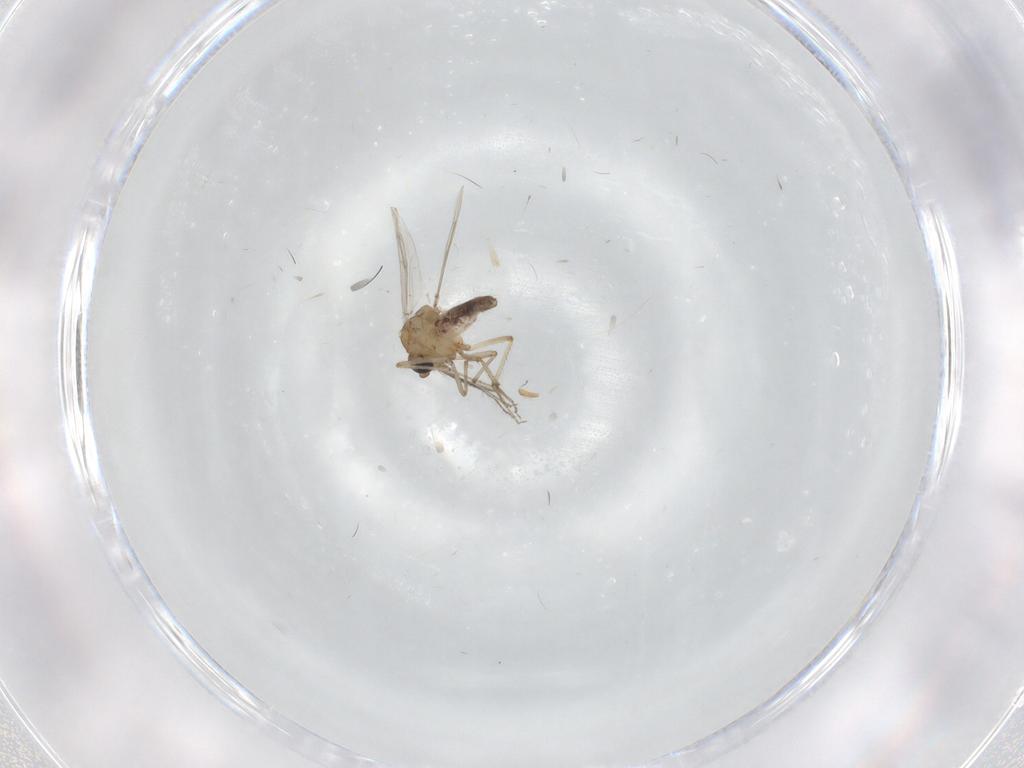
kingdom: Animalia
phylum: Arthropoda
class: Insecta
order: Diptera
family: Ceratopogonidae
